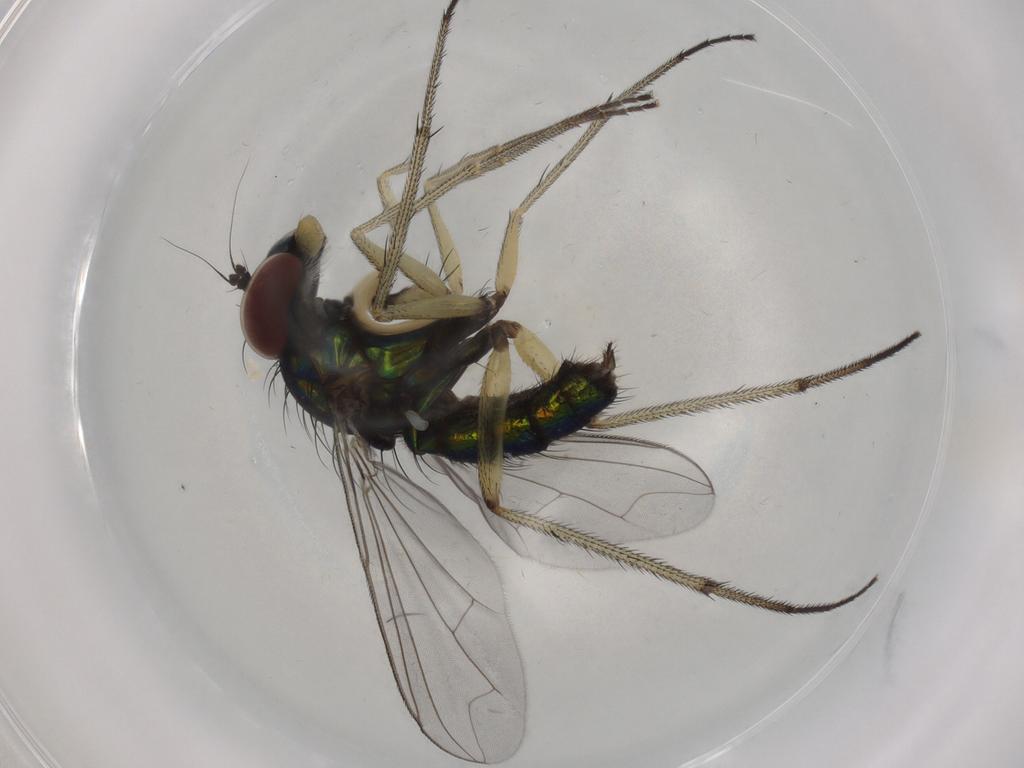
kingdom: Animalia
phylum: Arthropoda
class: Insecta
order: Diptera
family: Dolichopodidae
